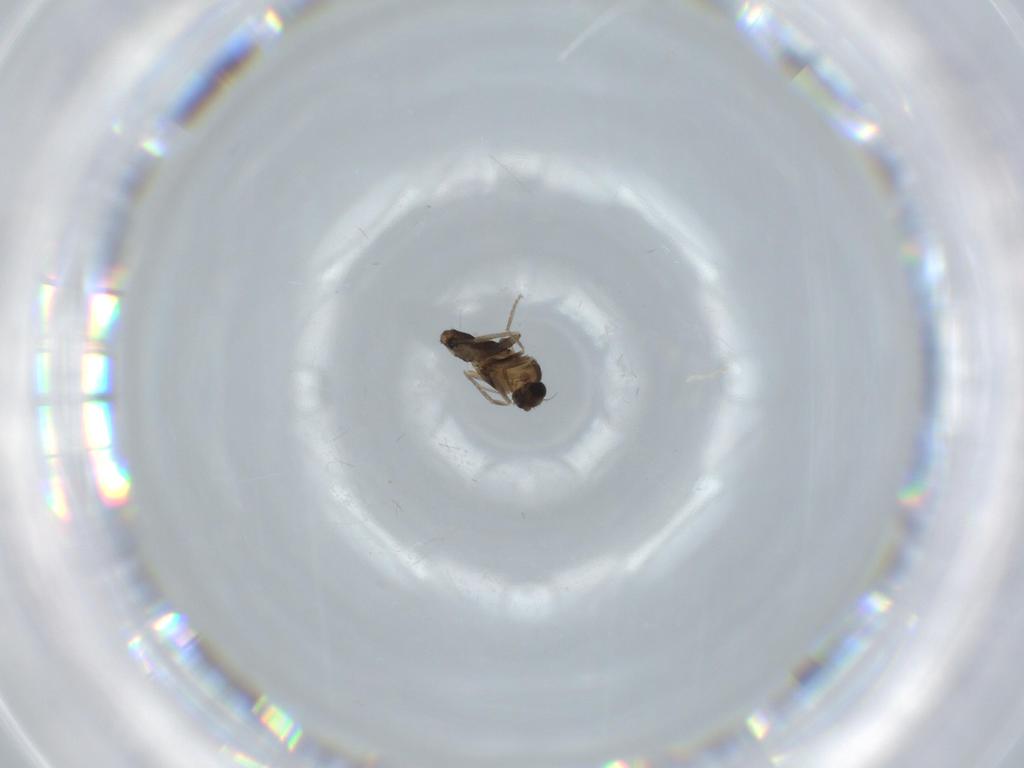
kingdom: Animalia
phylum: Arthropoda
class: Insecta
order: Diptera
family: Phoridae
